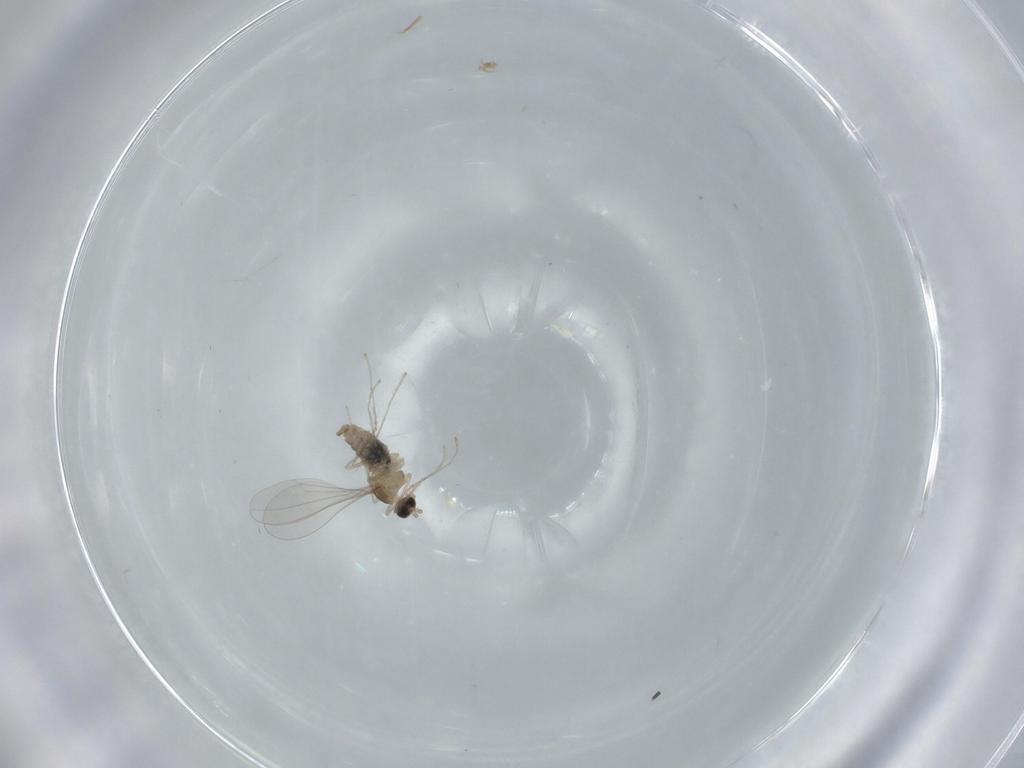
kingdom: Animalia
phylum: Arthropoda
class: Insecta
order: Diptera
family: Cecidomyiidae
